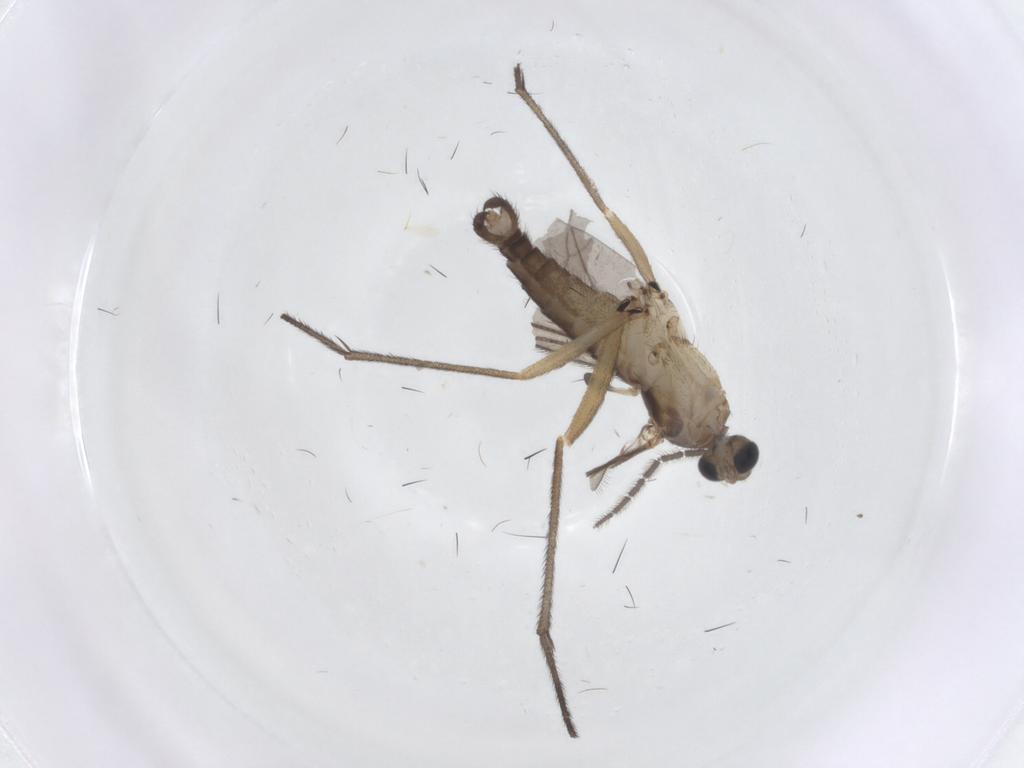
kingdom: Animalia
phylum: Arthropoda
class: Insecta
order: Diptera
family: Sciaridae
